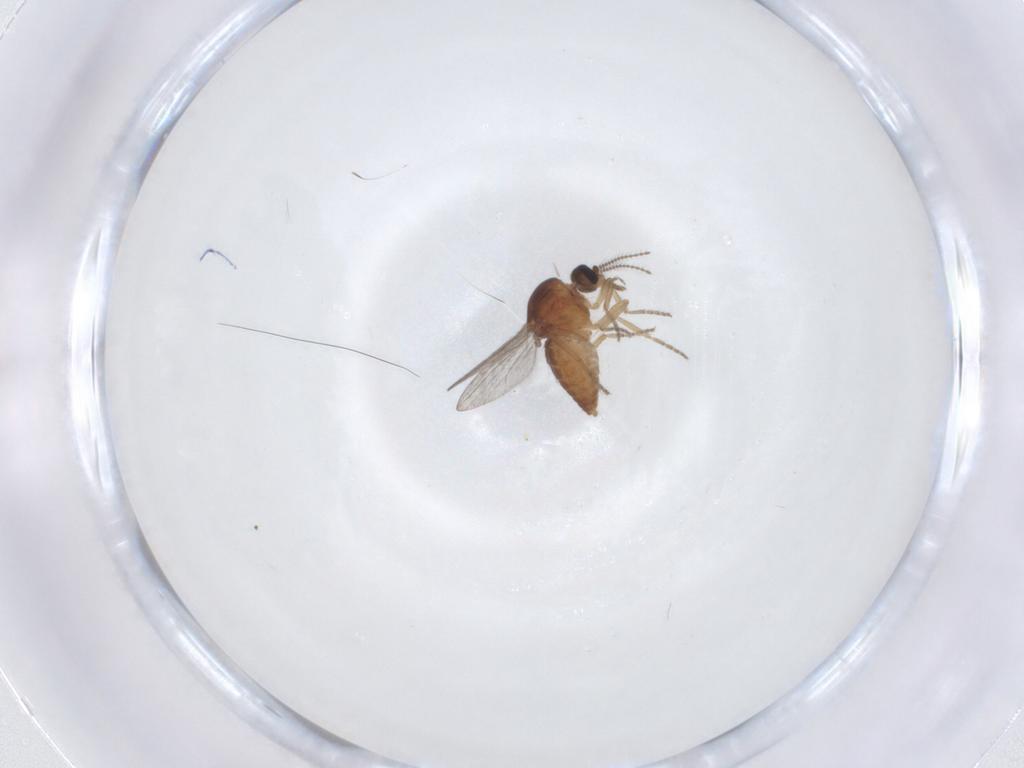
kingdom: Animalia
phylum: Arthropoda
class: Insecta
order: Diptera
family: Ceratopogonidae
